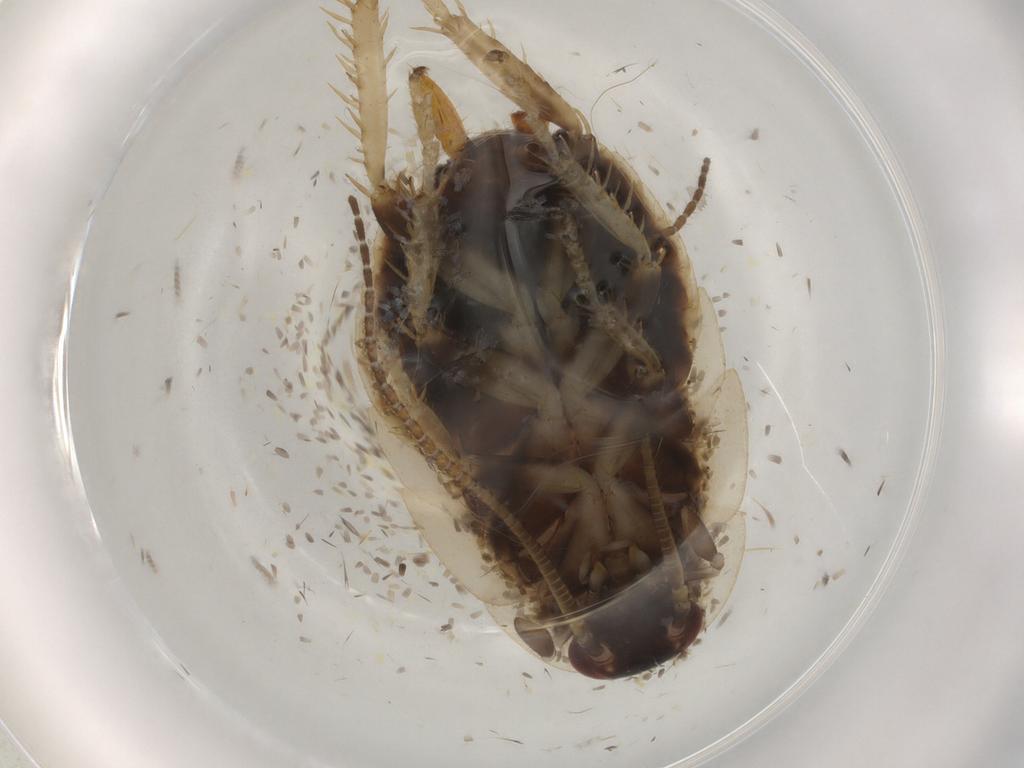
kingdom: Animalia
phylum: Arthropoda
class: Insecta
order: Blattodea
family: Ectobiidae
